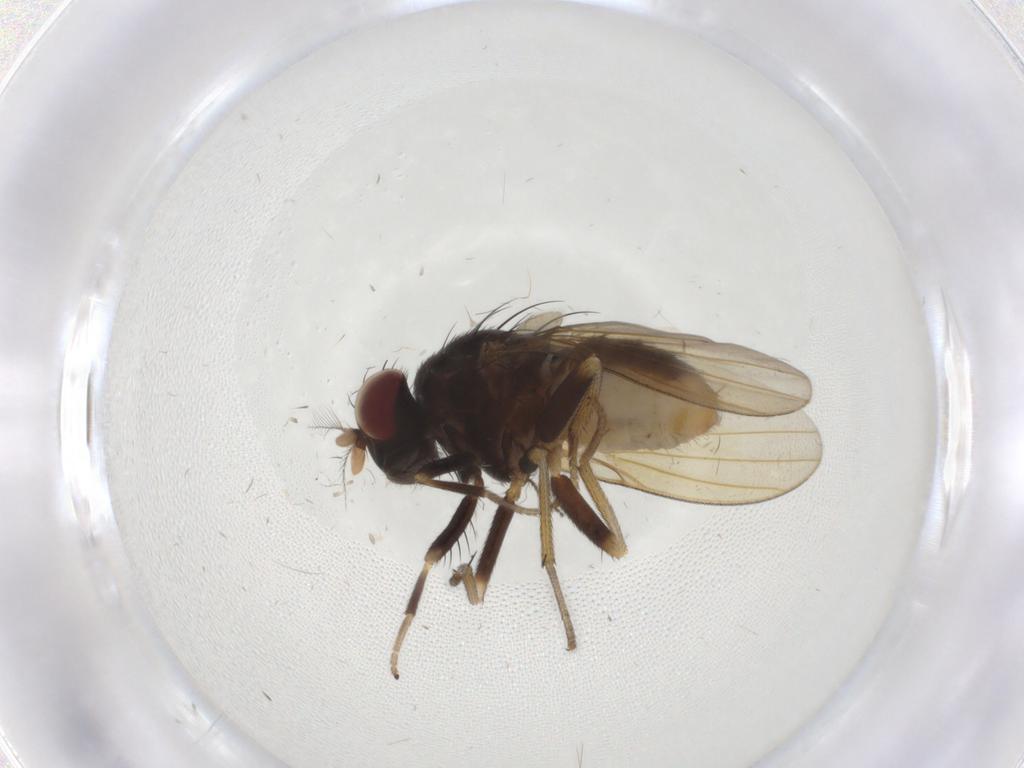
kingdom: Animalia
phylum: Arthropoda
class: Insecta
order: Diptera
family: Lauxaniidae
